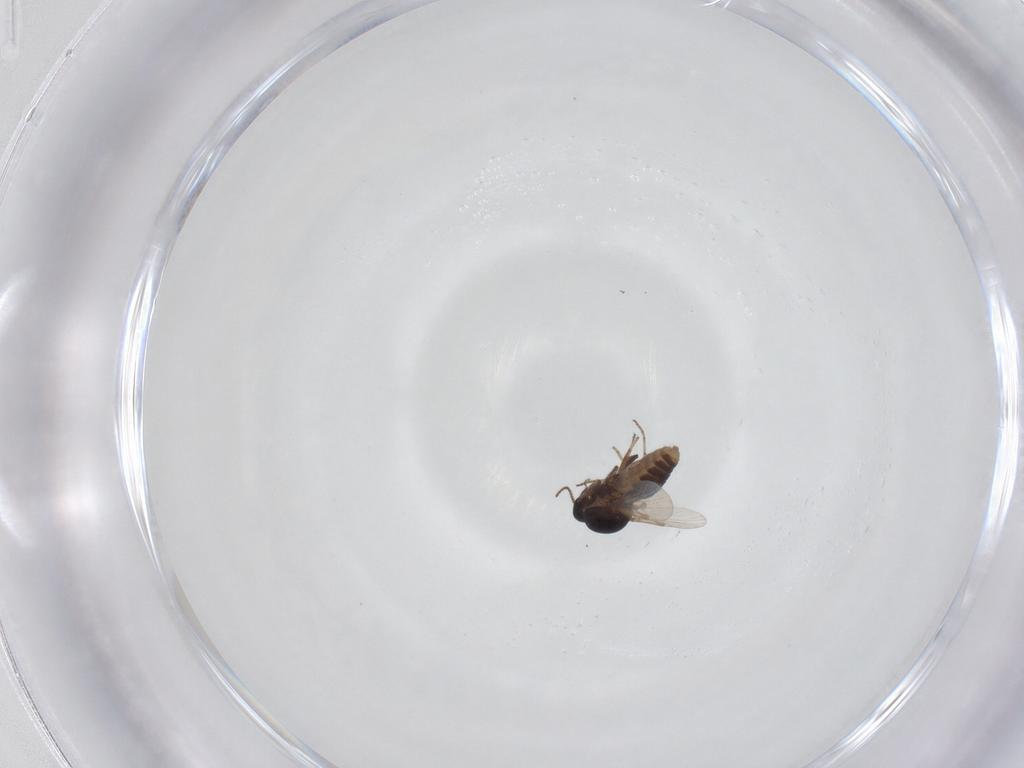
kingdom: Animalia
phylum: Arthropoda
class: Insecta
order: Diptera
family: Ceratopogonidae
